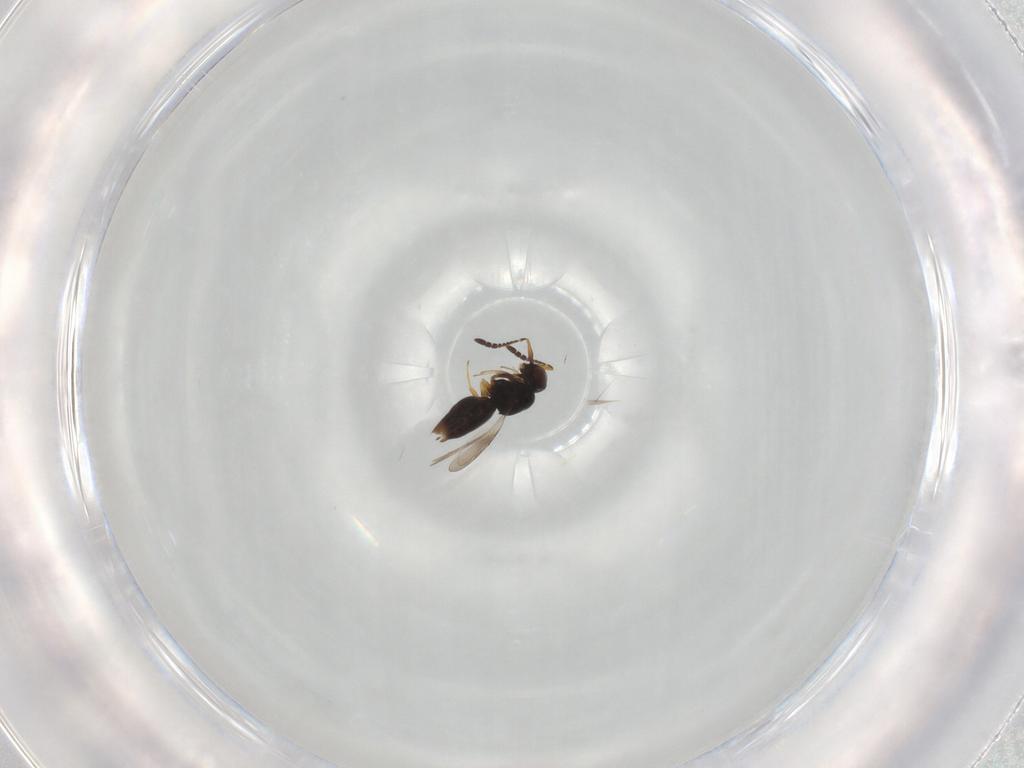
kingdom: Animalia
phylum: Arthropoda
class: Insecta
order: Hymenoptera
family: Ceraphronidae
